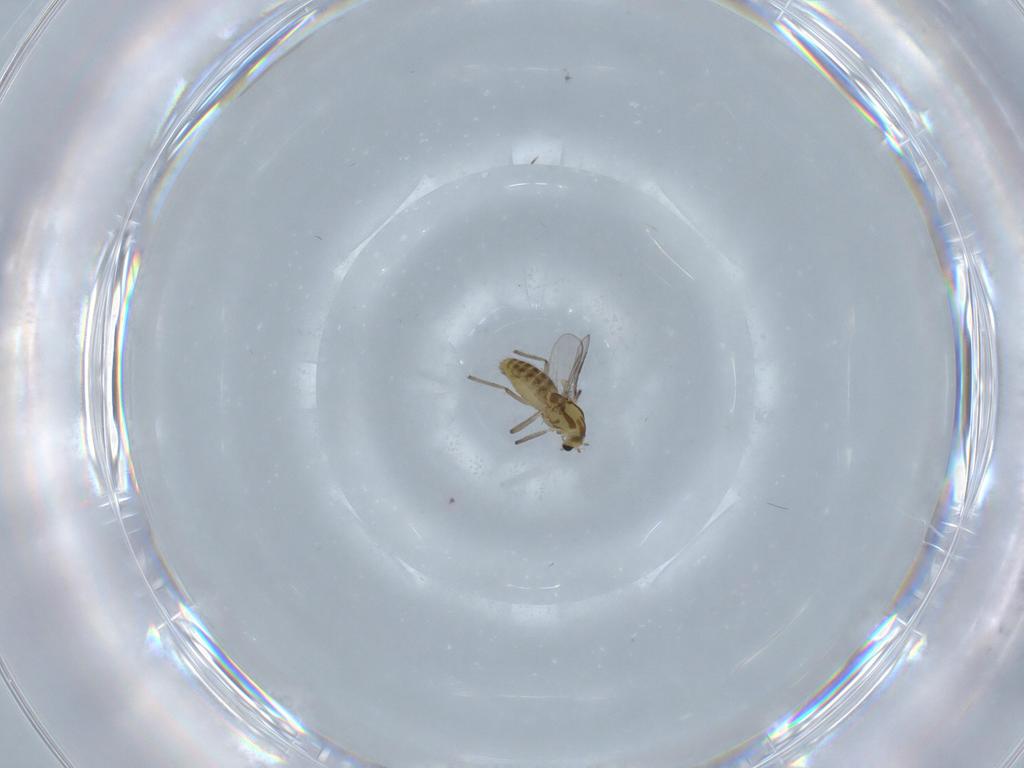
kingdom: Animalia
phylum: Arthropoda
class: Insecta
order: Diptera
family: Chironomidae
